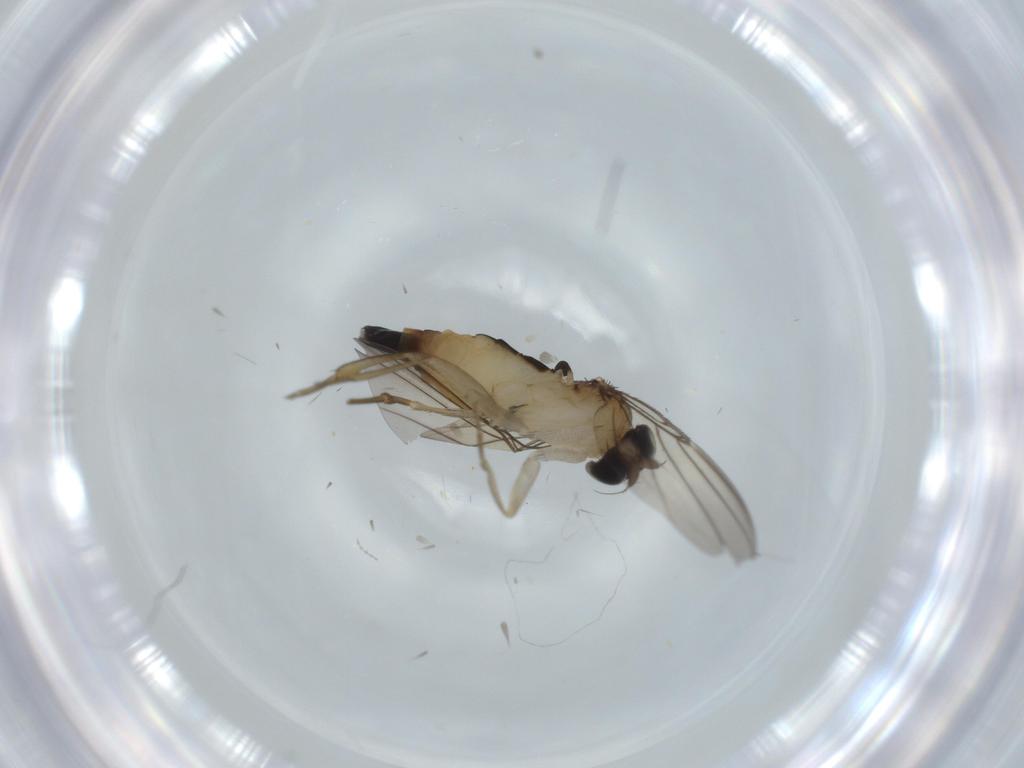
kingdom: Animalia
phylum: Arthropoda
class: Insecta
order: Diptera
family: Phoridae
